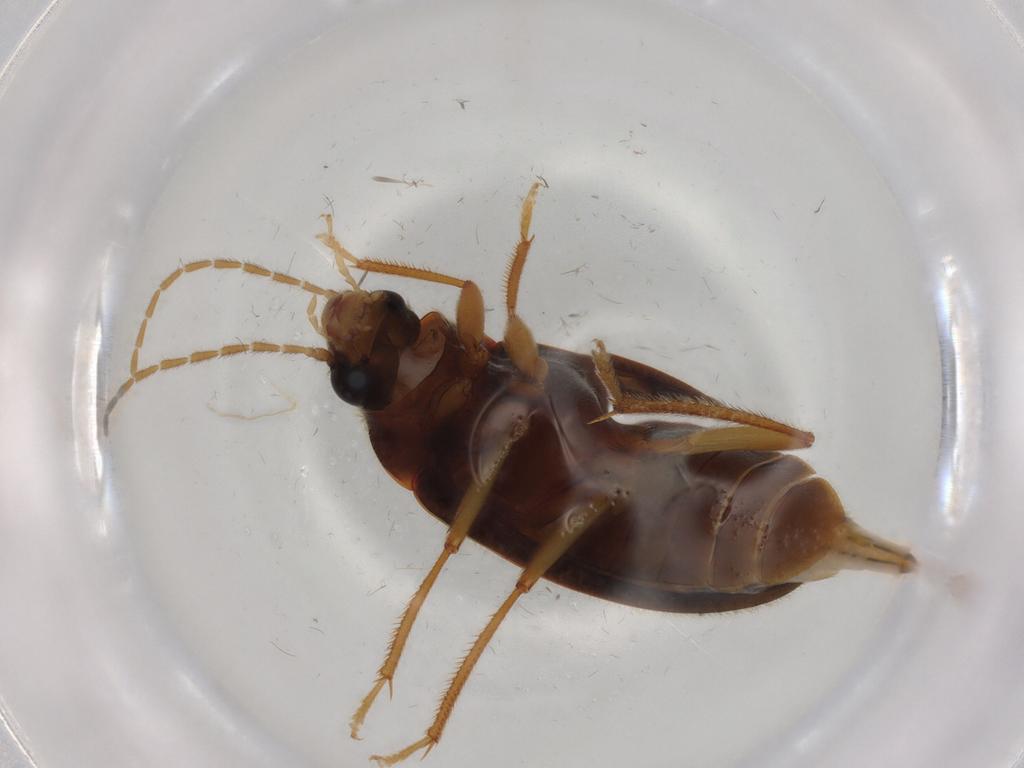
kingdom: Animalia
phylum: Arthropoda
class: Insecta
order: Coleoptera
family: Ptilodactylidae
